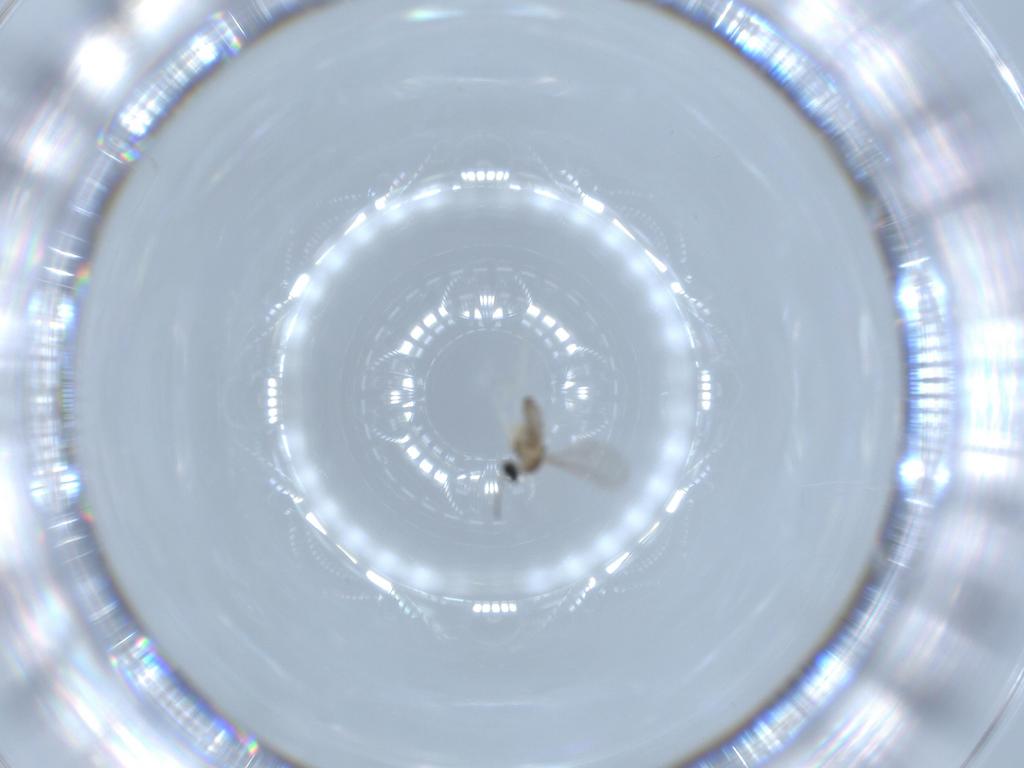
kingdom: Animalia
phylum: Arthropoda
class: Insecta
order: Diptera
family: Cecidomyiidae
